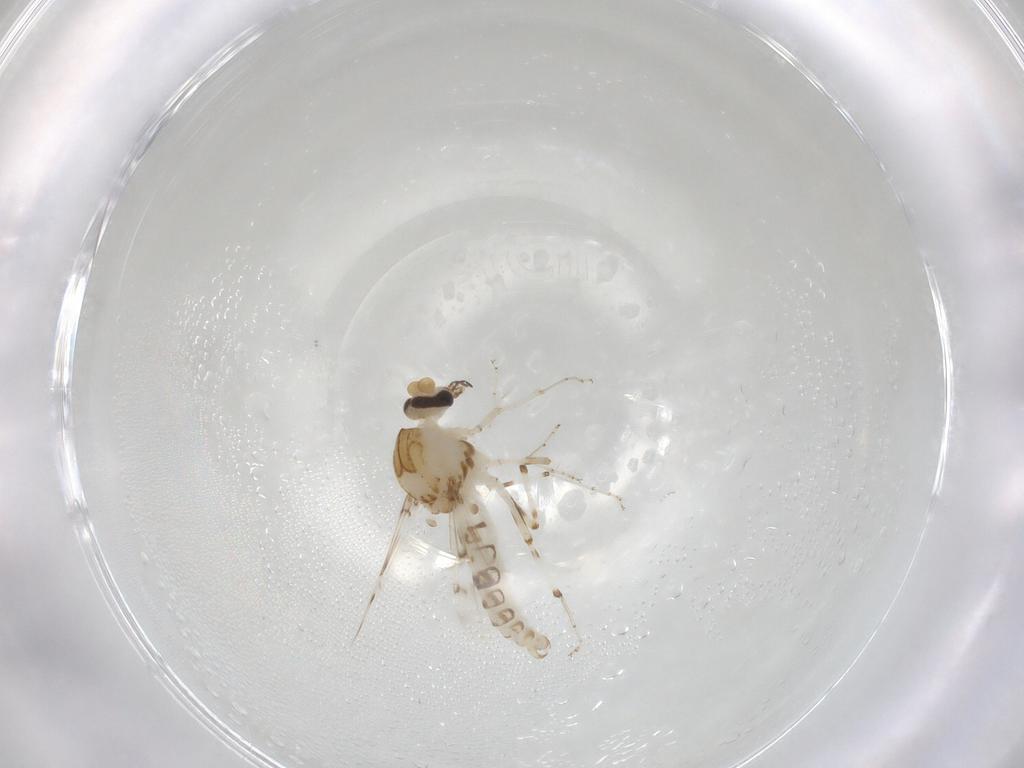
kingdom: Animalia
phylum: Arthropoda
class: Insecta
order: Diptera
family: Ceratopogonidae
